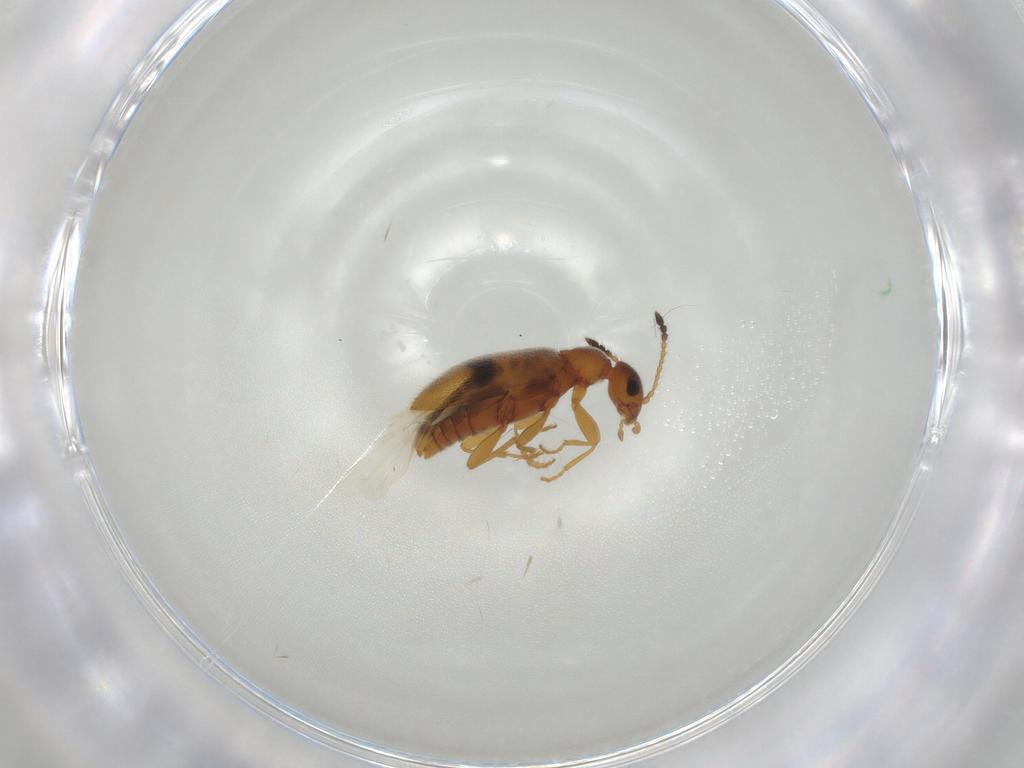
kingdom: Animalia
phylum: Arthropoda
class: Insecta
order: Coleoptera
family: Anthicidae
